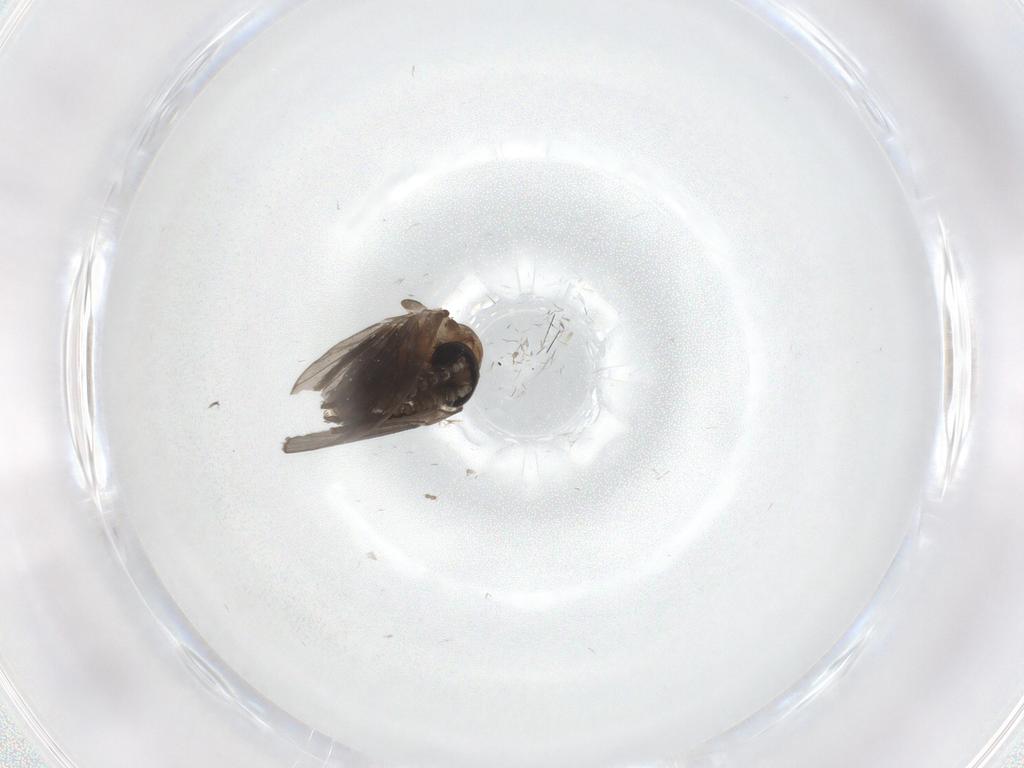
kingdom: Animalia
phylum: Arthropoda
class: Insecta
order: Diptera
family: Psychodidae
